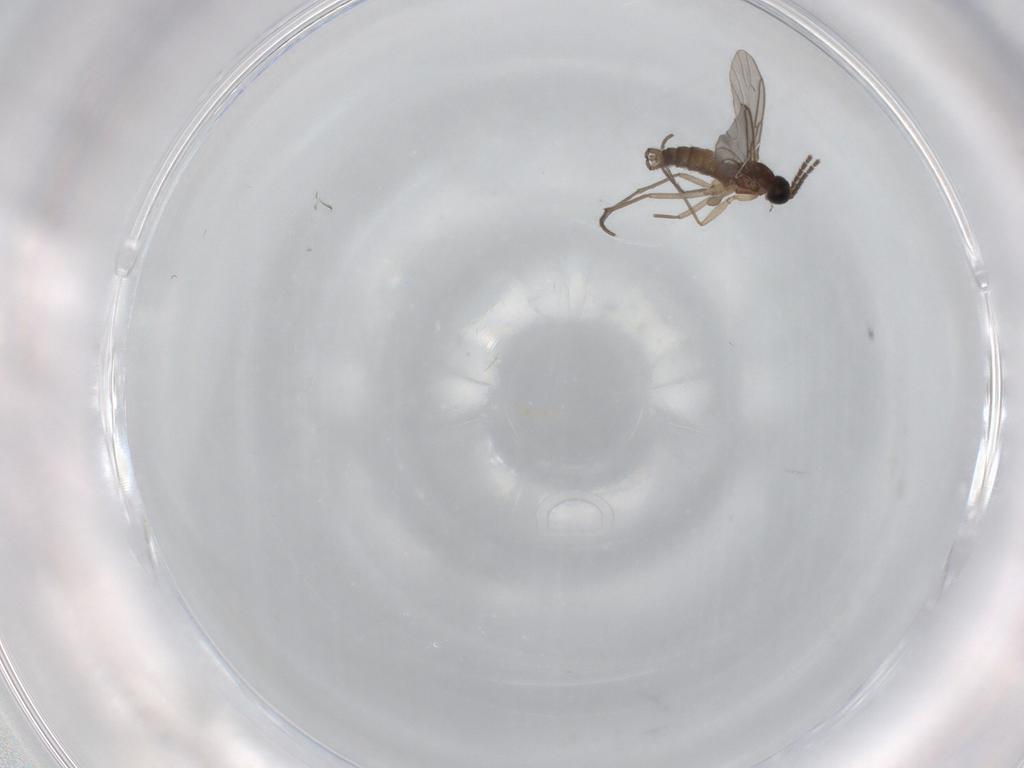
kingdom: Animalia
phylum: Arthropoda
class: Insecta
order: Diptera
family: Sciaridae
